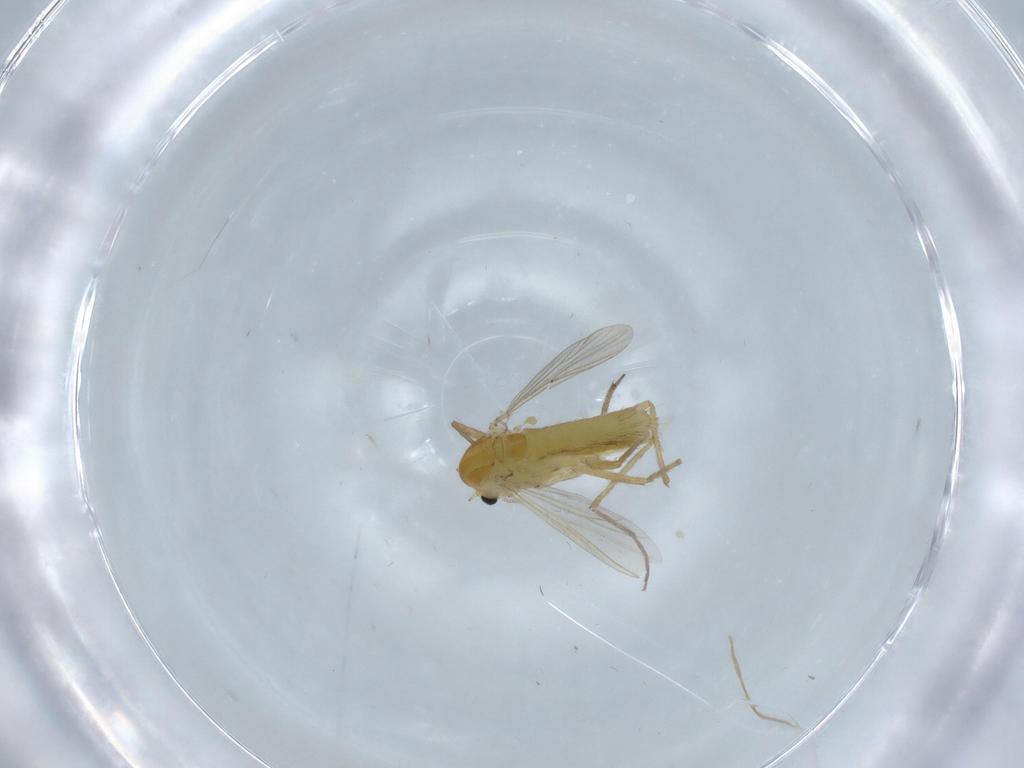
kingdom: Animalia
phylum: Arthropoda
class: Insecta
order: Diptera
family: Chironomidae
